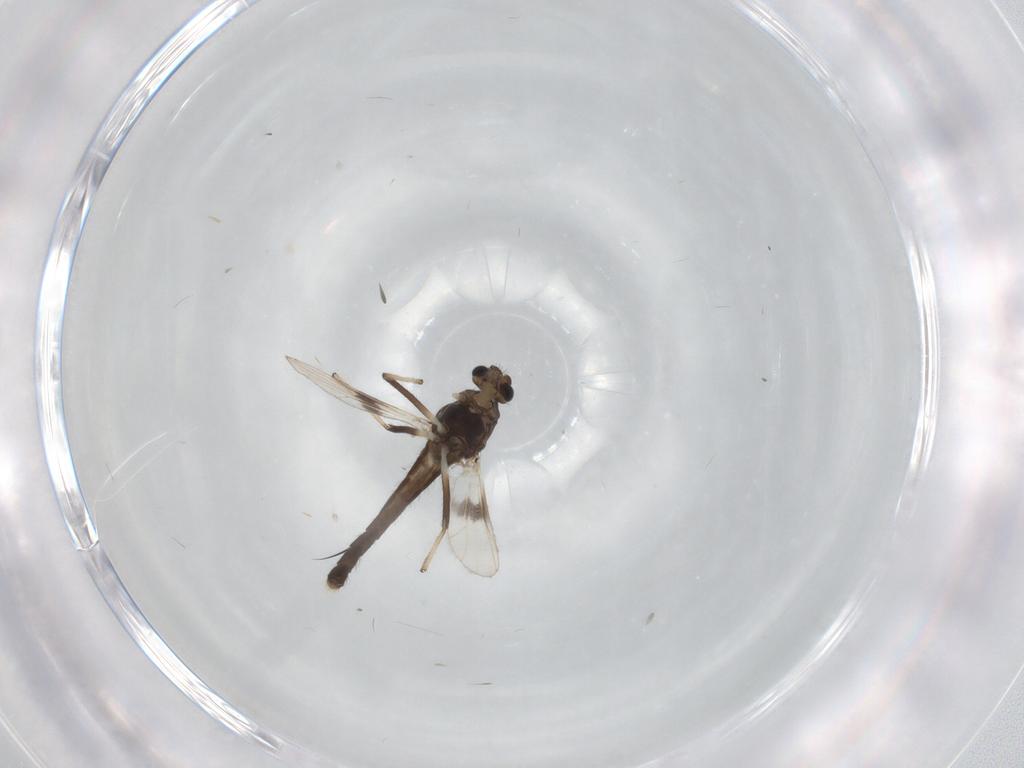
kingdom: Animalia
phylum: Arthropoda
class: Insecta
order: Diptera
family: Chironomidae
